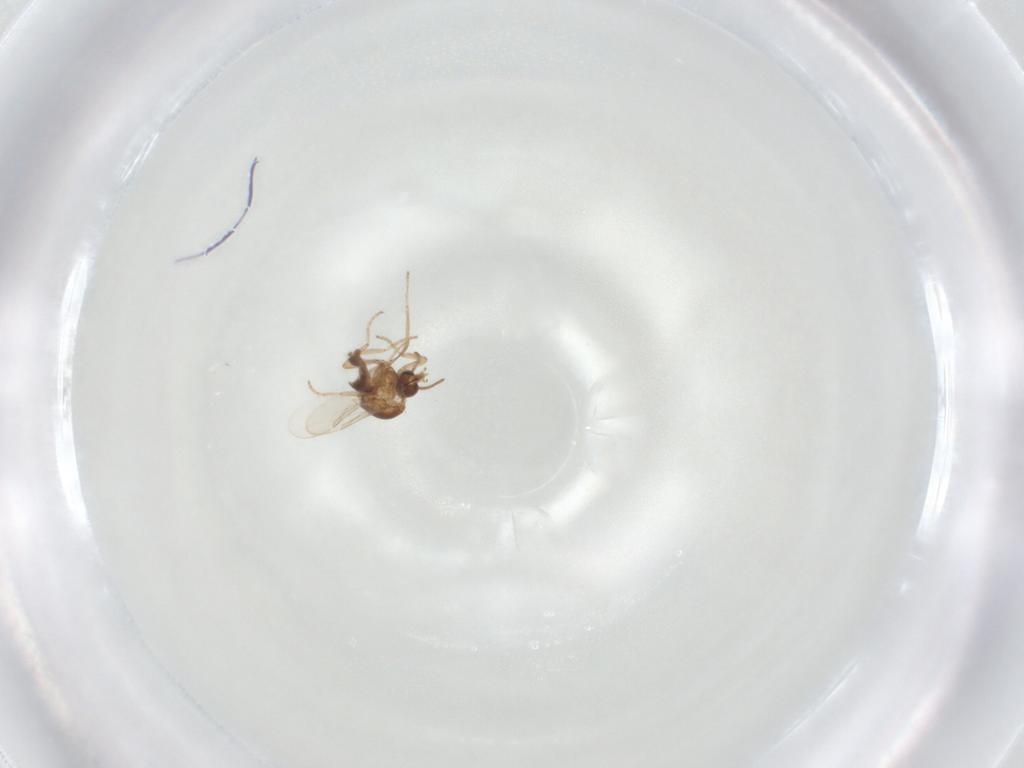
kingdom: Animalia
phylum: Arthropoda
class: Insecta
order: Diptera
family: Ceratopogonidae
